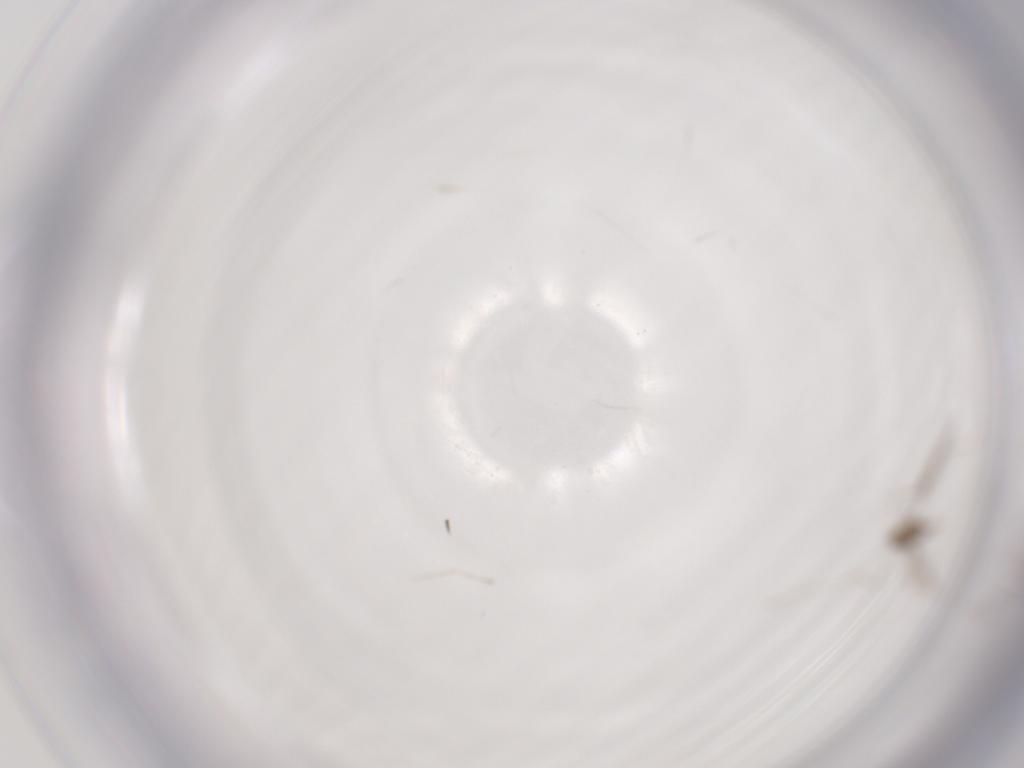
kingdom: Animalia
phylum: Arthropoda
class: Insecta
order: Diptera
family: Cecidomyiidae
